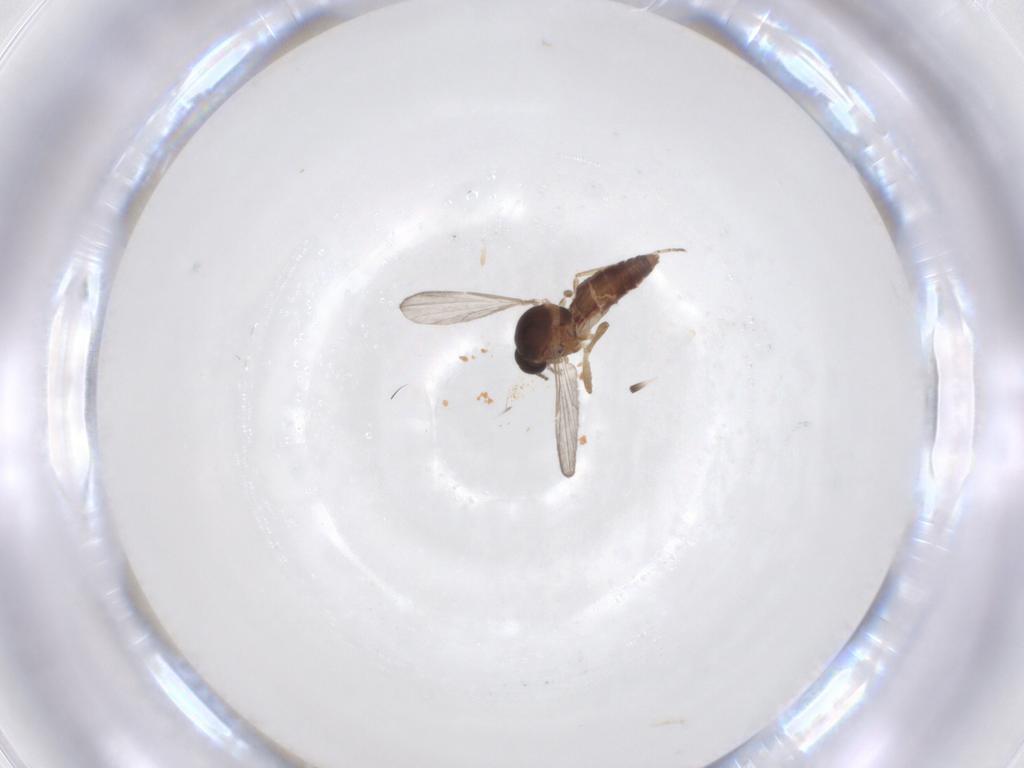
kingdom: Animalia
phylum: Arthropoda
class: Insecta
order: Diptera
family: Ceratopogonidae
